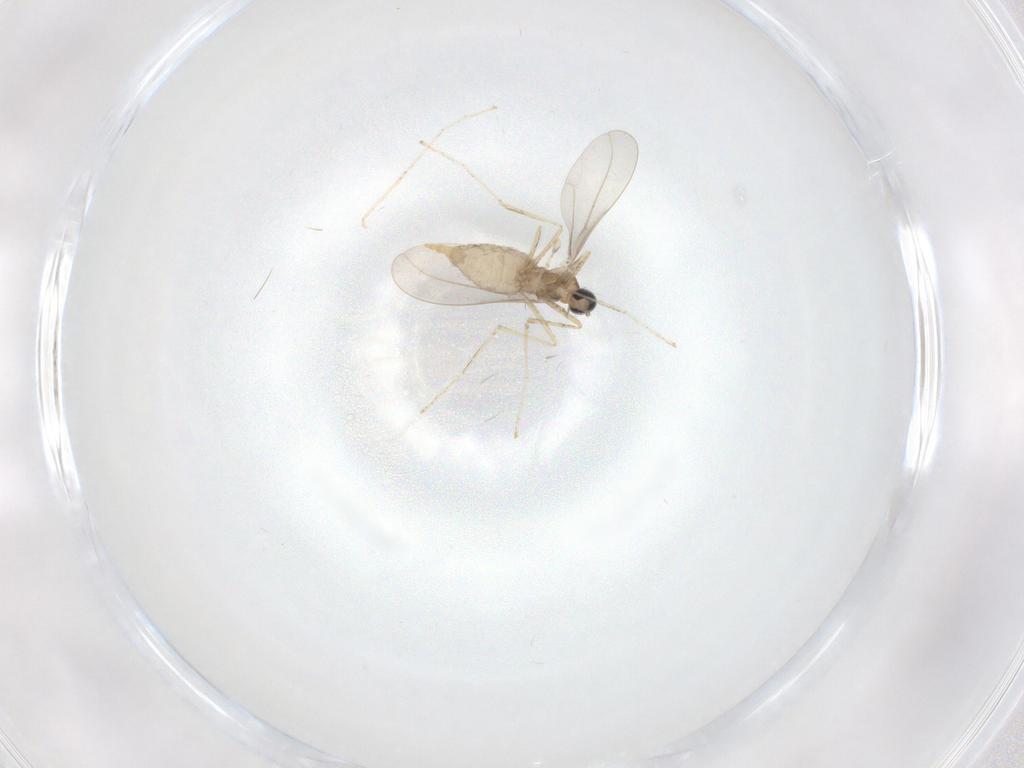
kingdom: Animalia
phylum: Arthropoda
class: Insecta
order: Diptera
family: Cecidomyiidae
